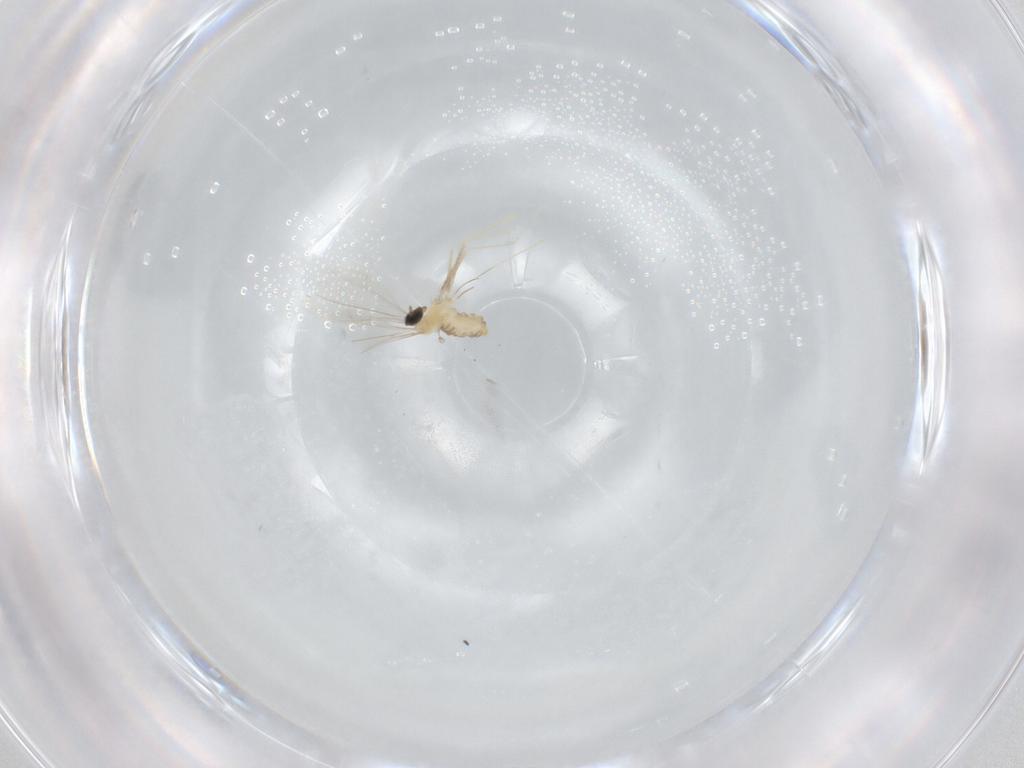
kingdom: Animalia
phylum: Arthropoda
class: Insecta
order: Diptera
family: Cecidomyiidae
